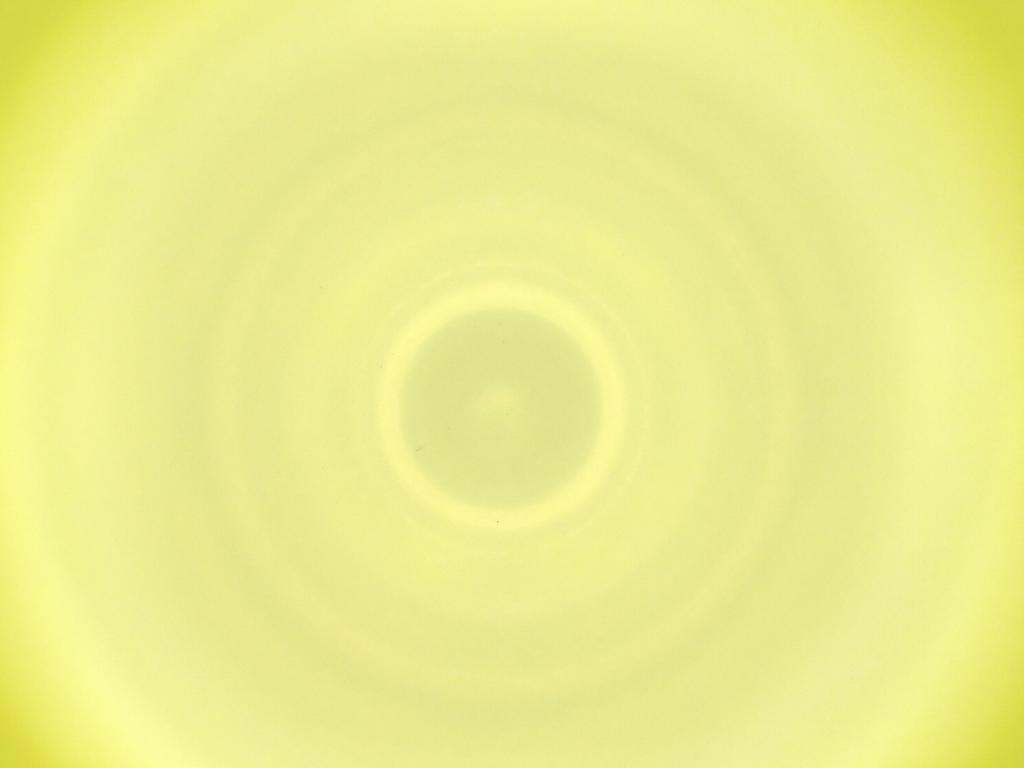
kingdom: Animalia
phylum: Arthropoda
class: Insecta
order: Diptera
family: Cecidomyiidae
